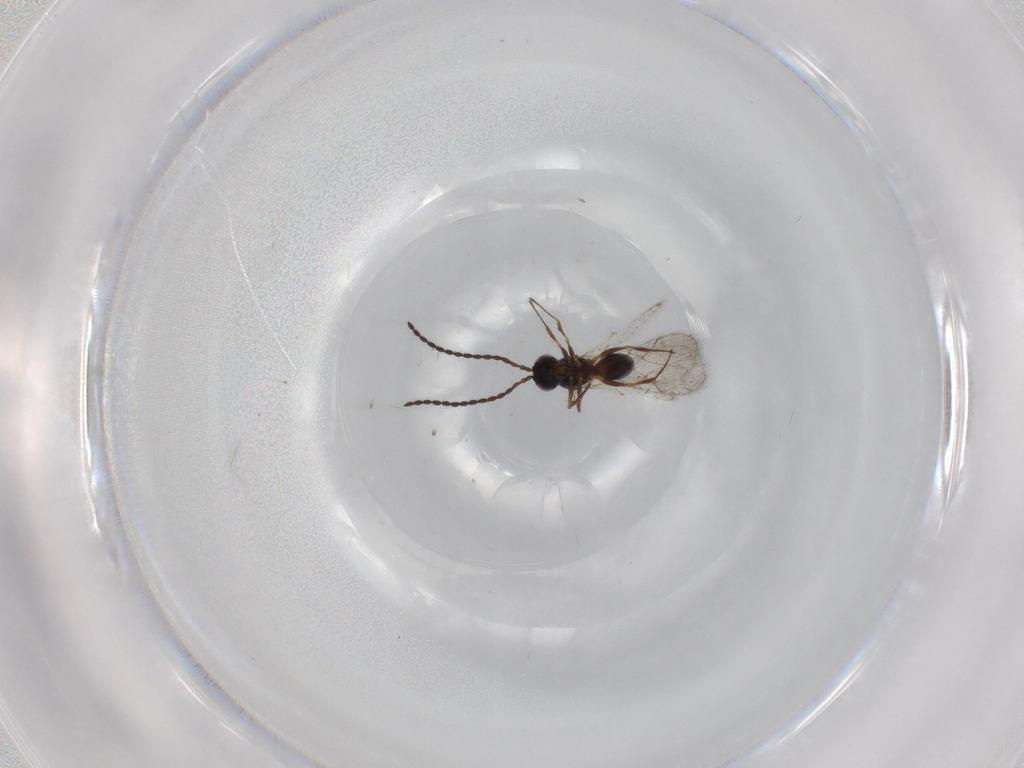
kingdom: Animalia
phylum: Arthropoda
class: Insecta
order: Hymenoptera
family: Figitidae
